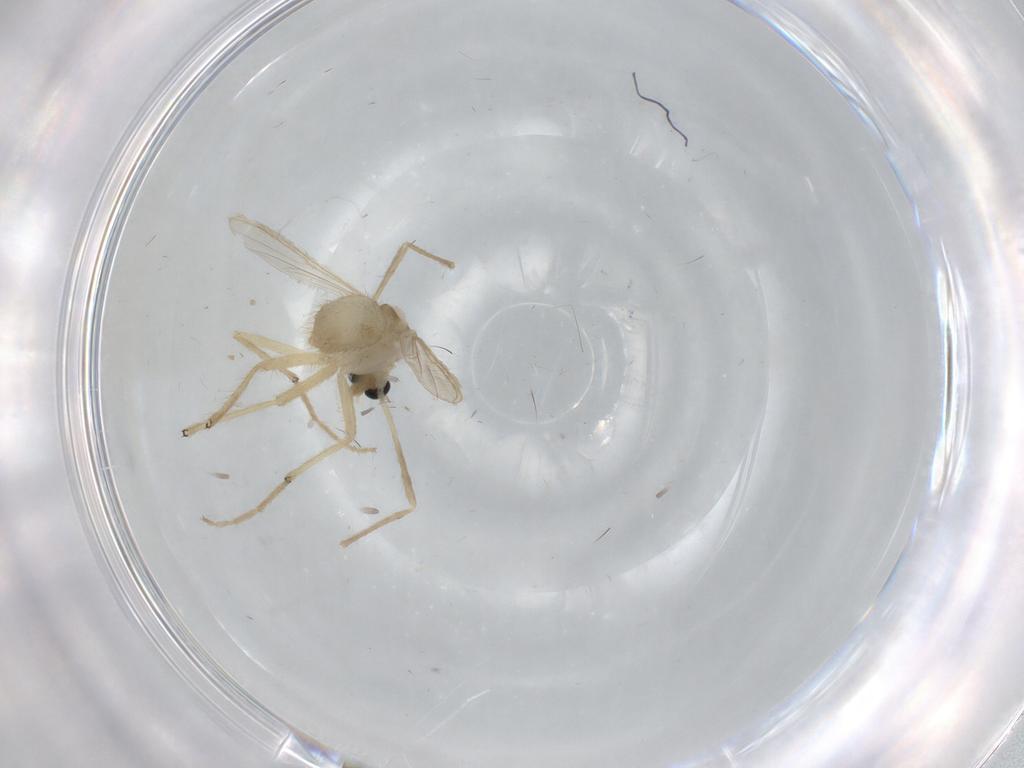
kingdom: Animalia
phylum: Arthropoda
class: Insecta
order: Diptera
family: Chironomidae
